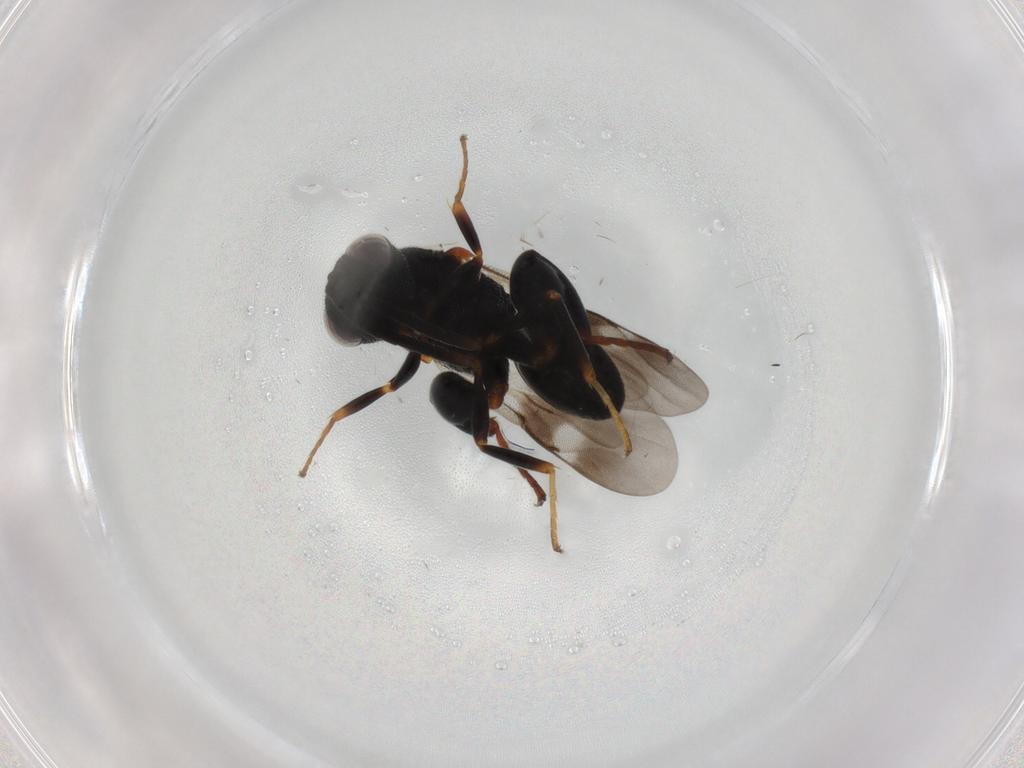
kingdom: Animalia
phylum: Arthropoda
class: Insecta
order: Hymenoptera
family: Formicidae
